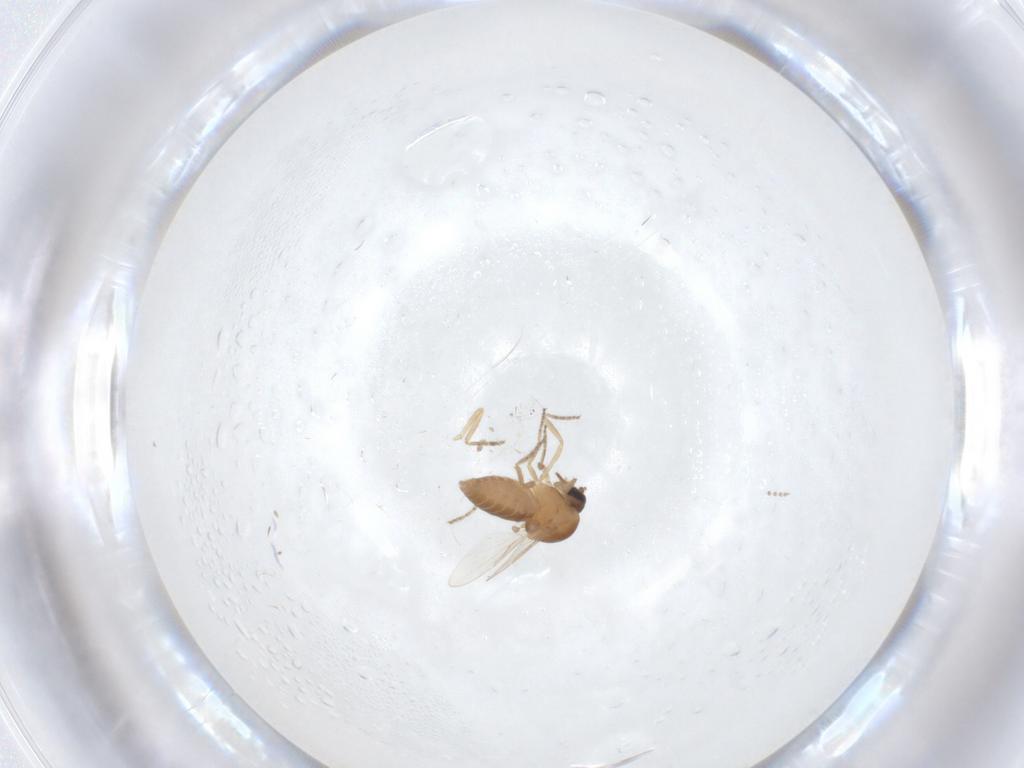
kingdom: Animalia
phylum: Arthropoda
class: Insecta
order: Diptera
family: Ceratopogonidae
